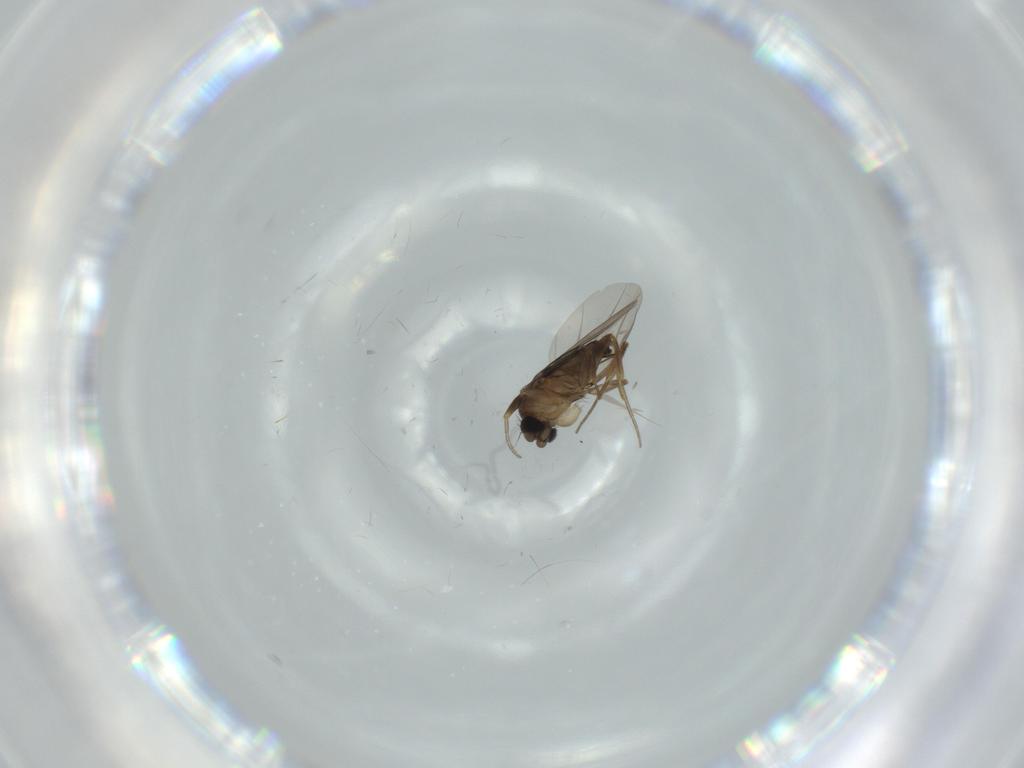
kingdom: Animalia
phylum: Arthropoda
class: Insecta
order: Diptera
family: Phoridae
